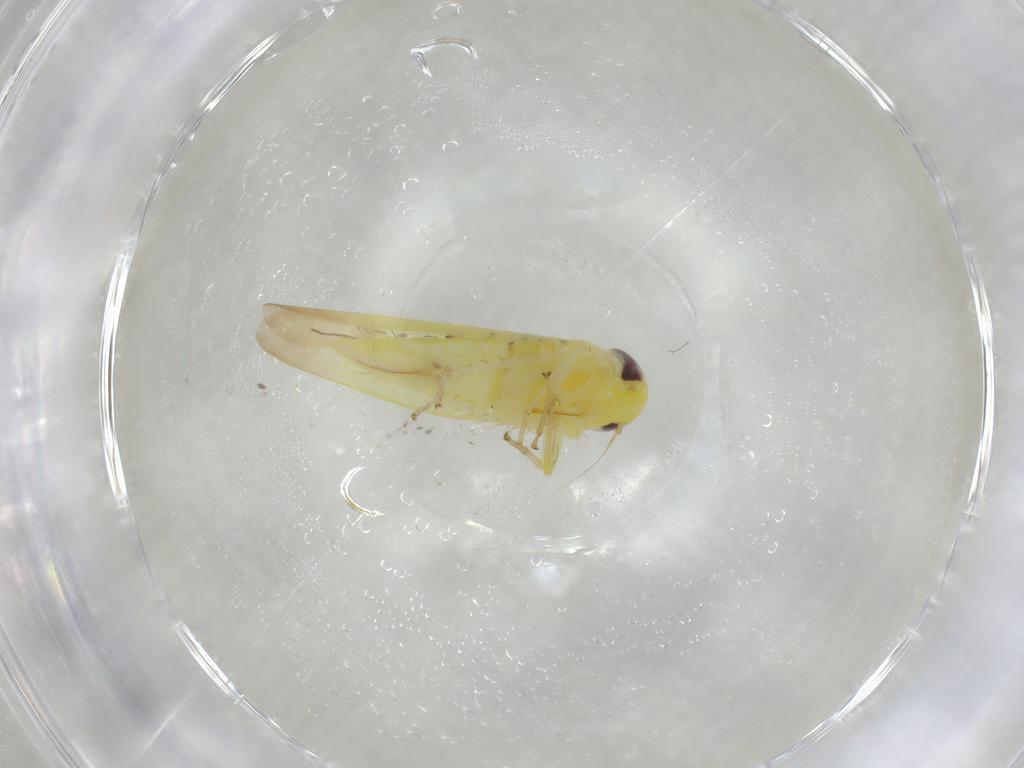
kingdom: Animalia
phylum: Arthropoda
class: Insecta
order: Hemiptera
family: Cicadellidae
